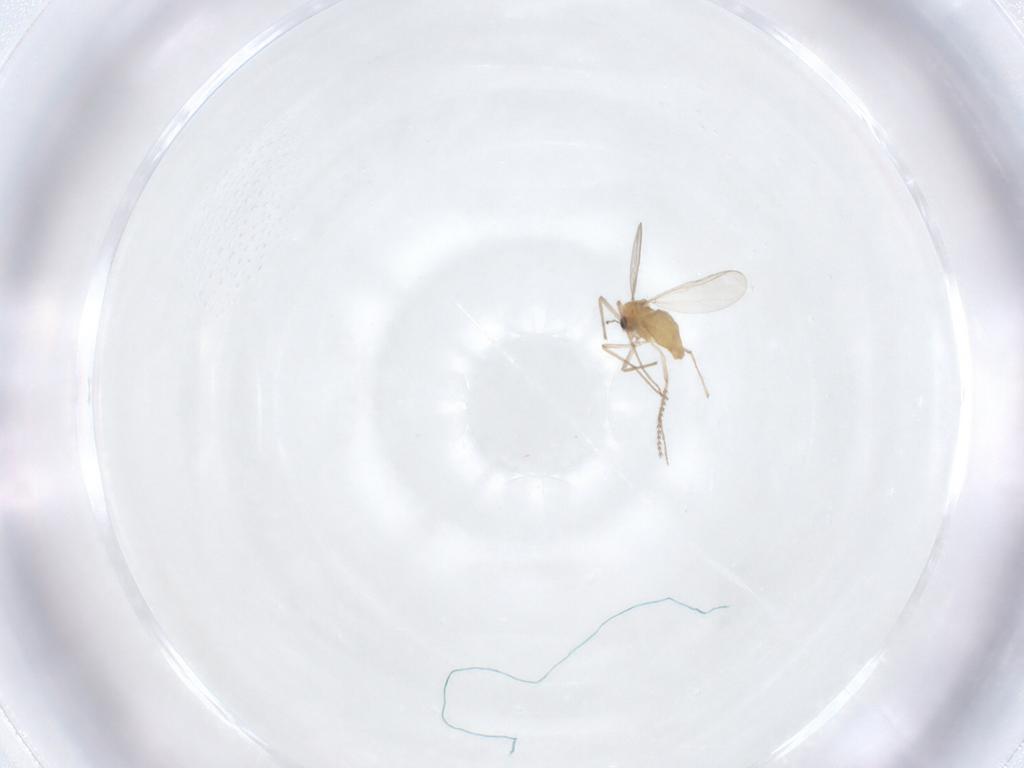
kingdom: Animalia
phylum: Arthropoda
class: Insecta
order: Diptera
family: Cecidomyiidae
